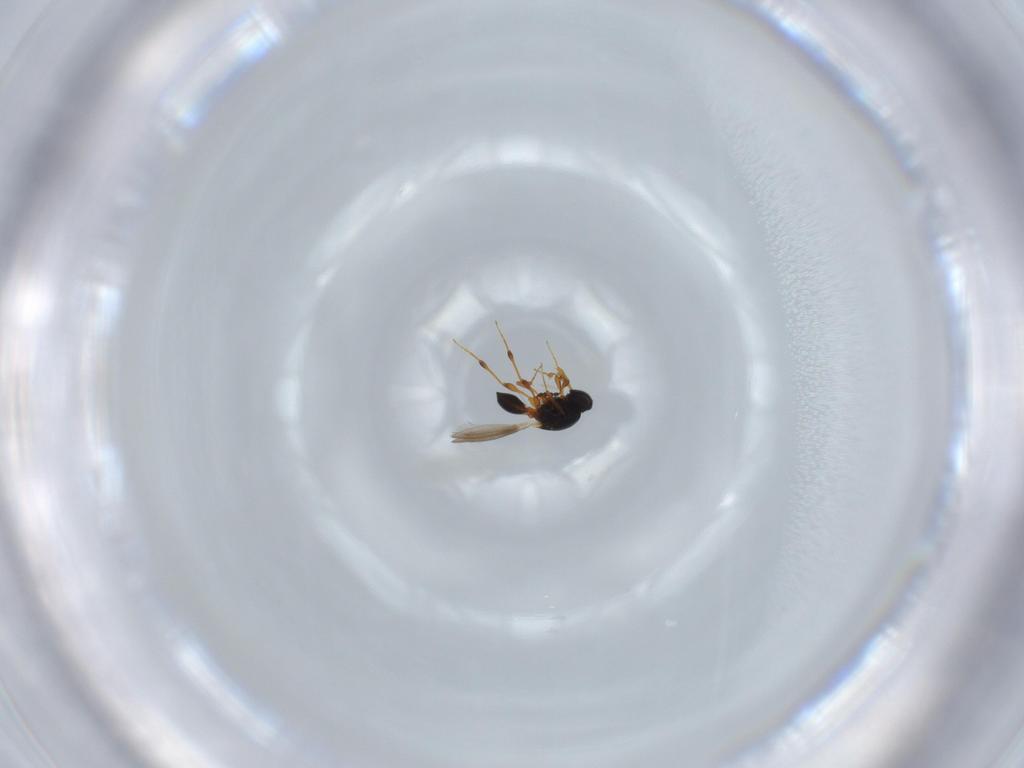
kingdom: Animalia
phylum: Arthropoda
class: Insecta
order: Hymenoptera
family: Platygastridae
